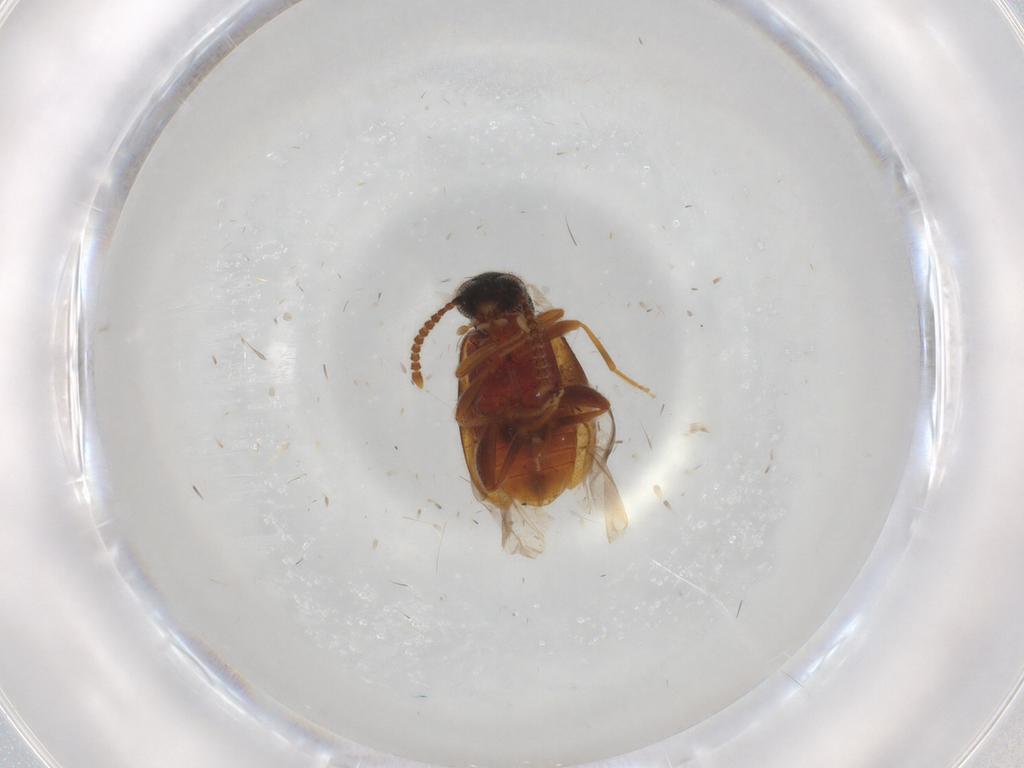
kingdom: Animalia
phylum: Arthropoda
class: Insecta
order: Coleoptera
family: Aderidae
